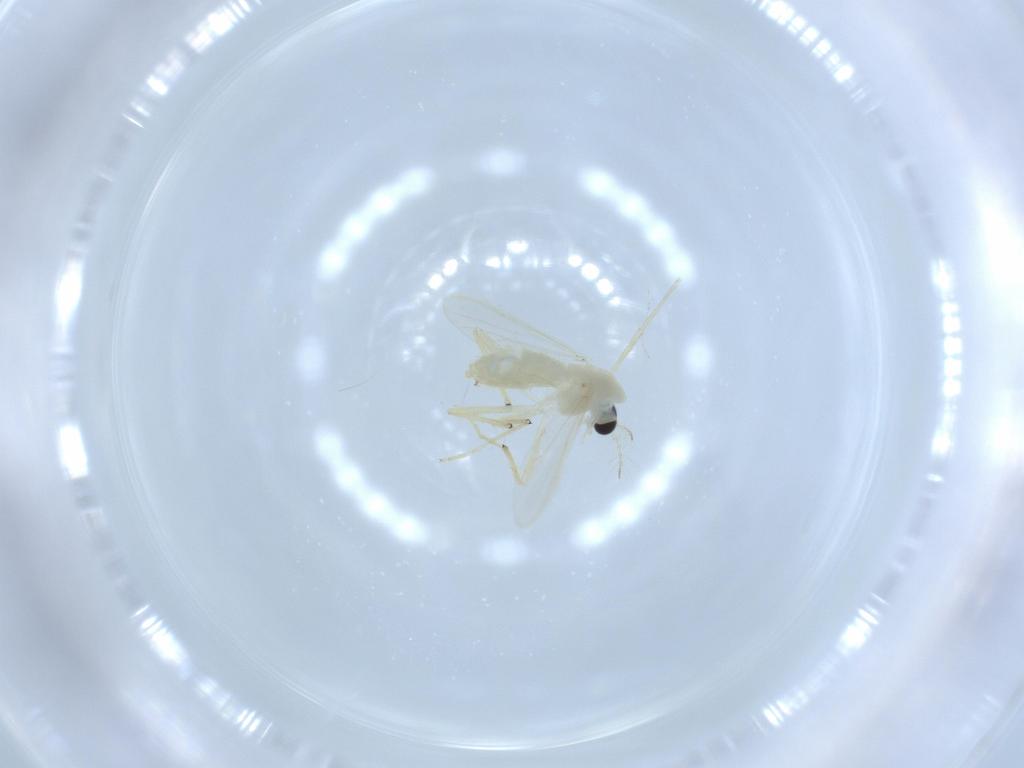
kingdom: Animalia
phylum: Arthropoda
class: Insecta
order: Diptera
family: Chironomidae
